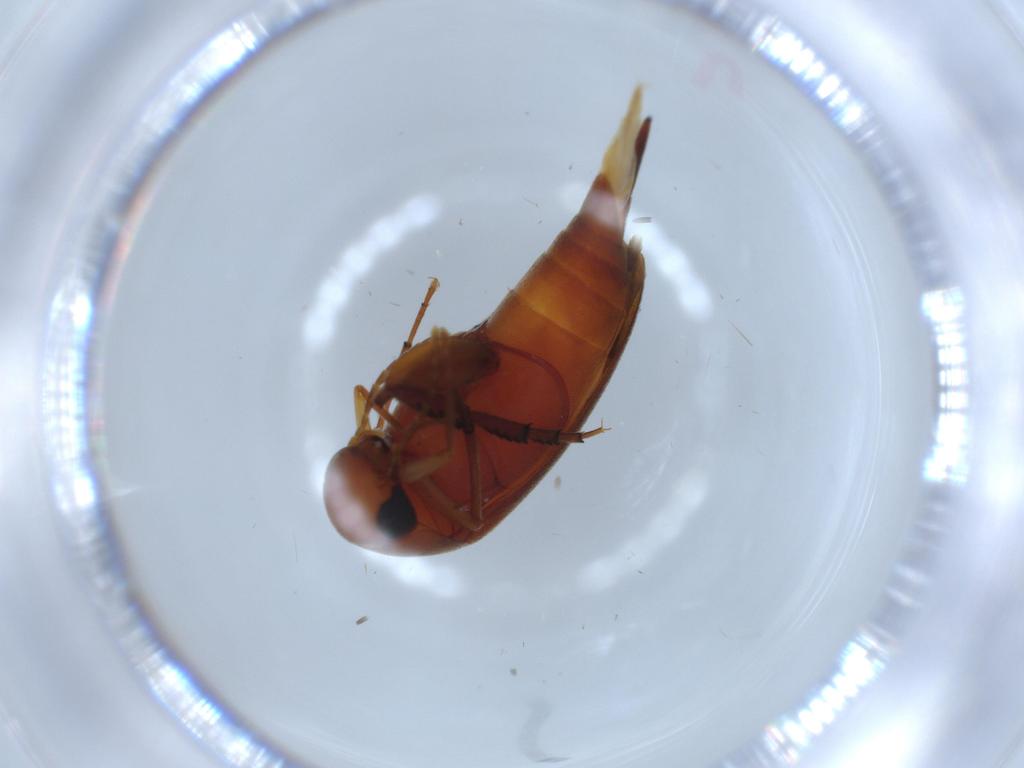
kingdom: Animalia
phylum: Arthropoda
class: Insecta
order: Coleoptera
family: Mordellidae
